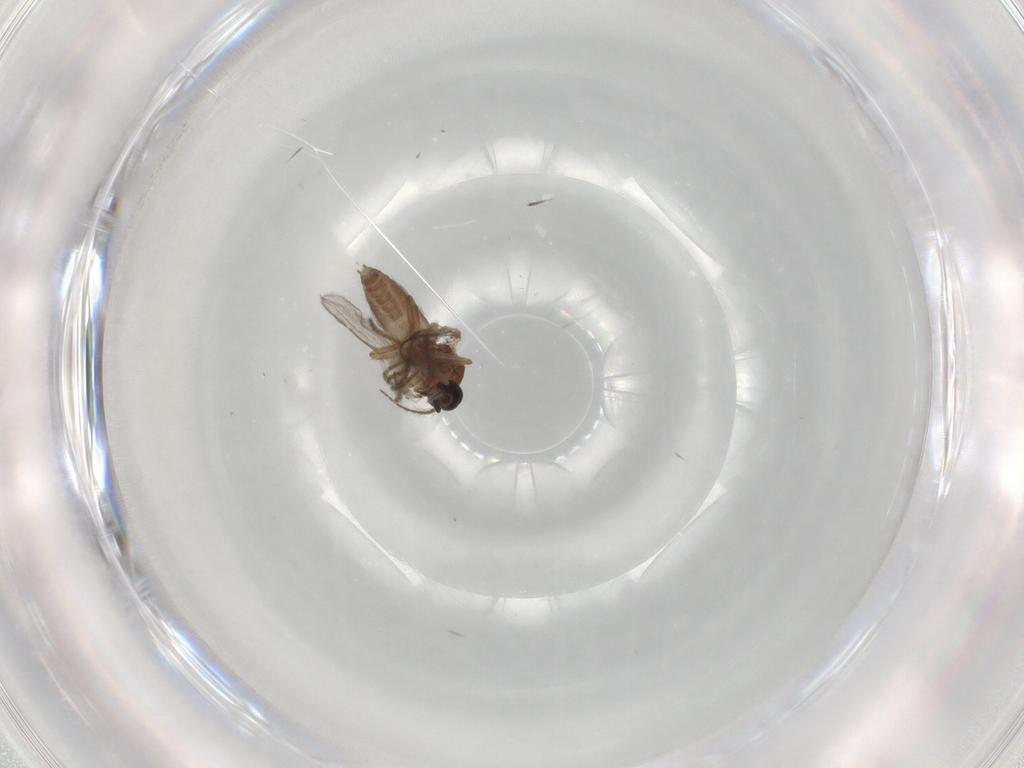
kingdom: Animalia
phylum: Arthropoda
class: Insecta
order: Diptera
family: Ceratopogonidae
